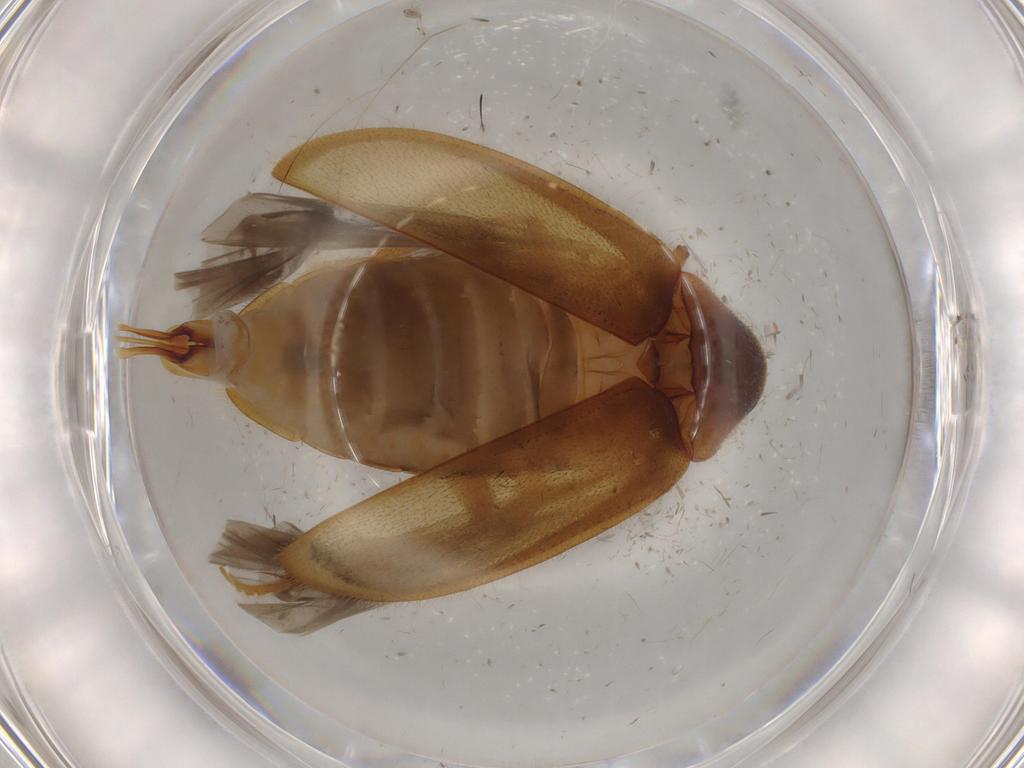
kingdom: Animalia
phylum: Arthropoda
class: Insecta
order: Coleoptera
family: Ptilodactylidae
